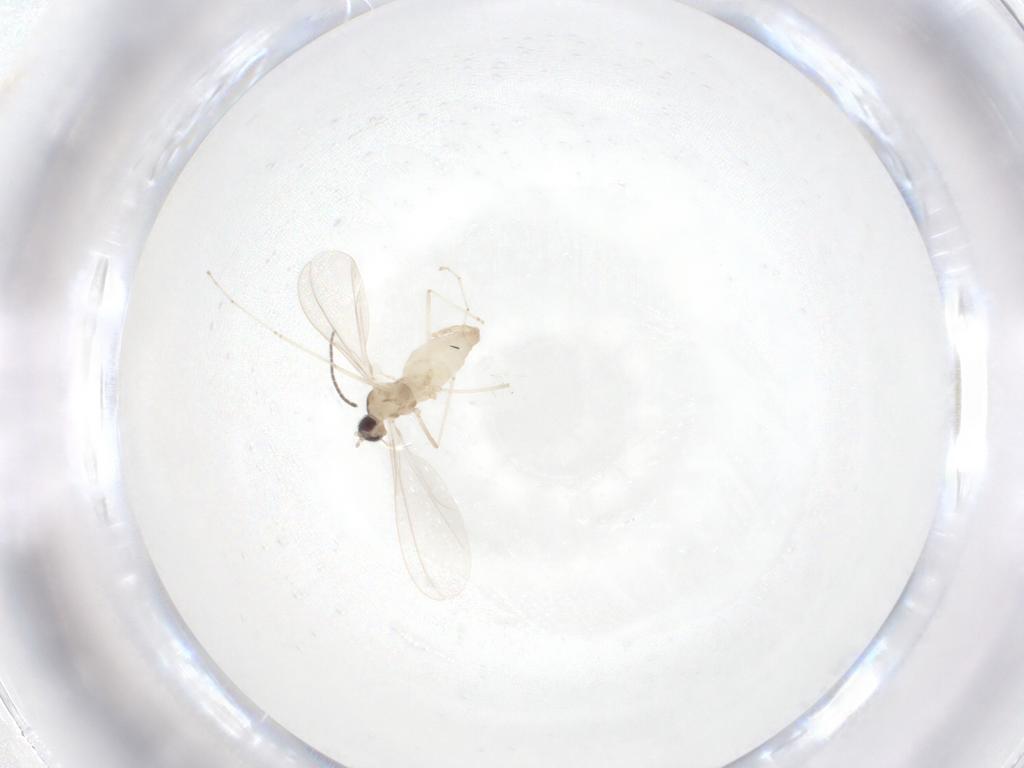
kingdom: Animalia
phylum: Arthropoda
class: Insecta
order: Diptera
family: Cecidomyiidae
